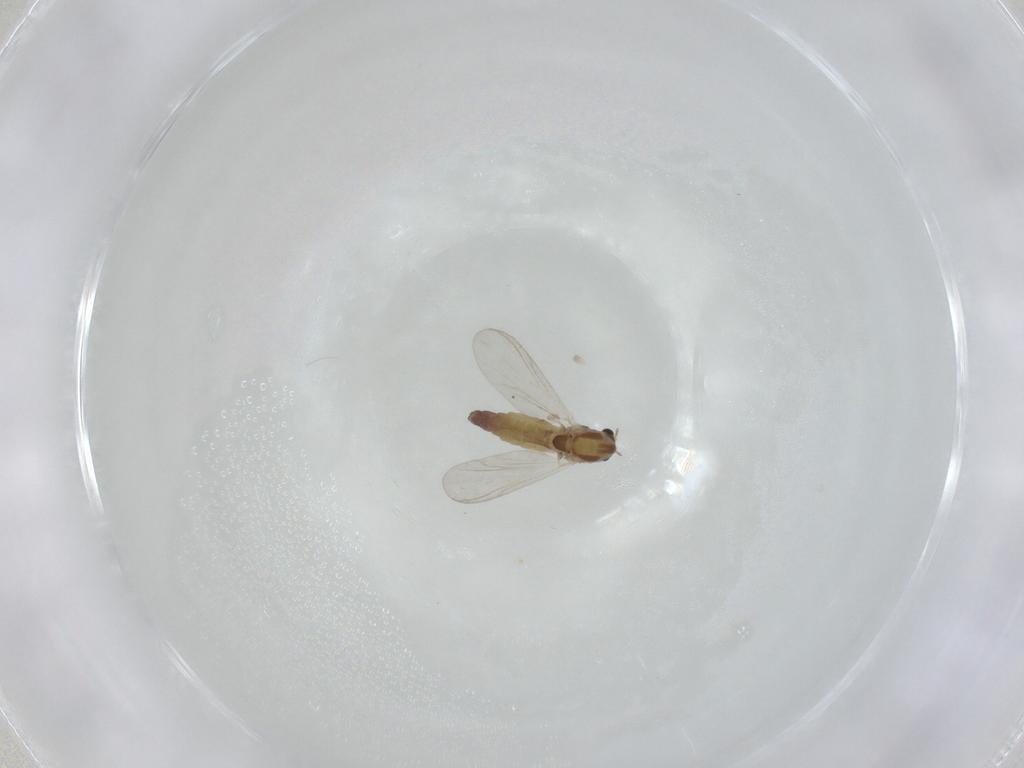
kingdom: Animalia
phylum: Arthropoda
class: Insecta
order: Diptera
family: Chironomidae
